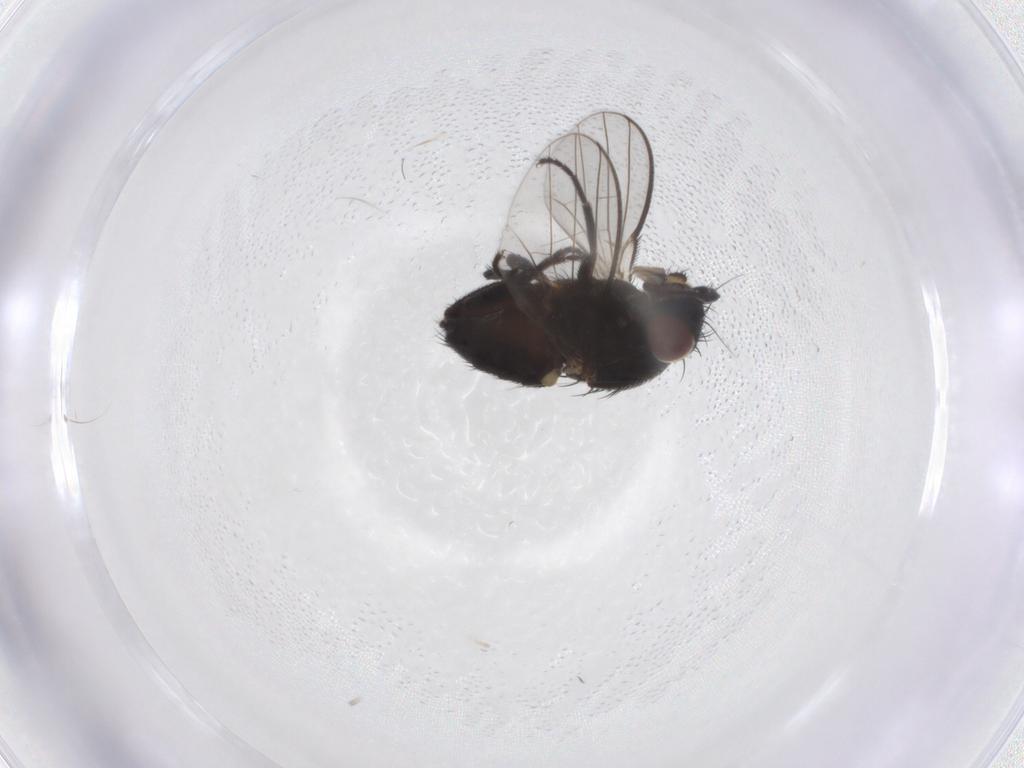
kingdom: Animalia
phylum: Arthropoda
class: Insecta
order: Diptera
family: Milichiidae
